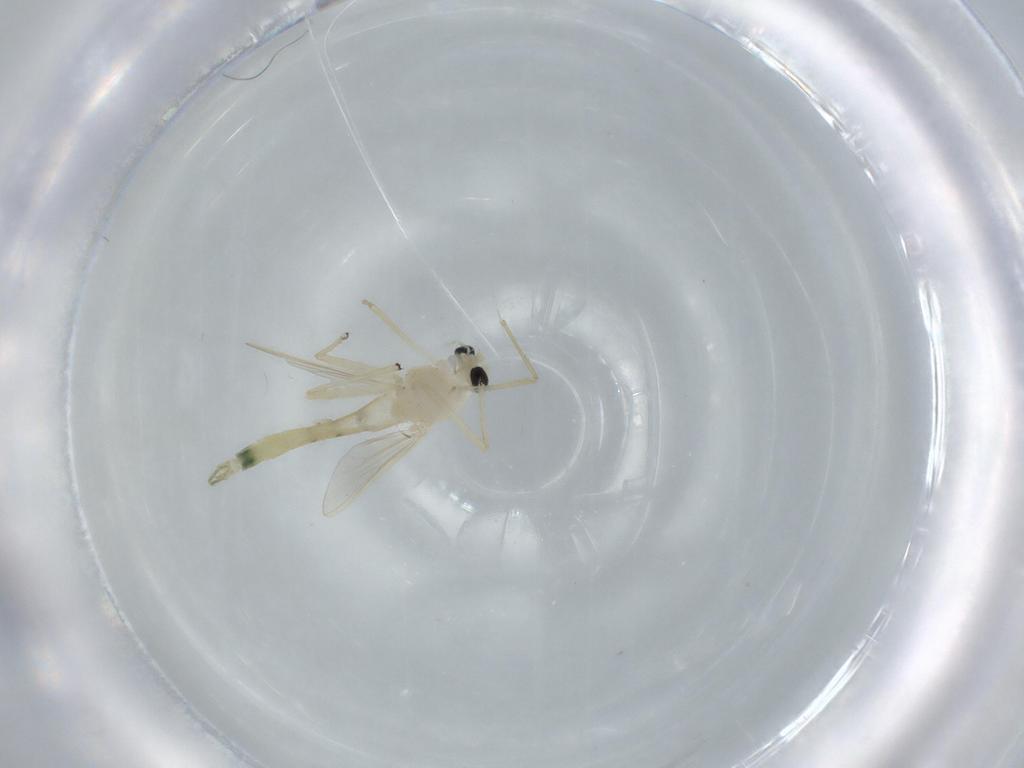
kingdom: Animalia
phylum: Arthropoda
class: Insecta
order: Diptera
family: Chironomidae
